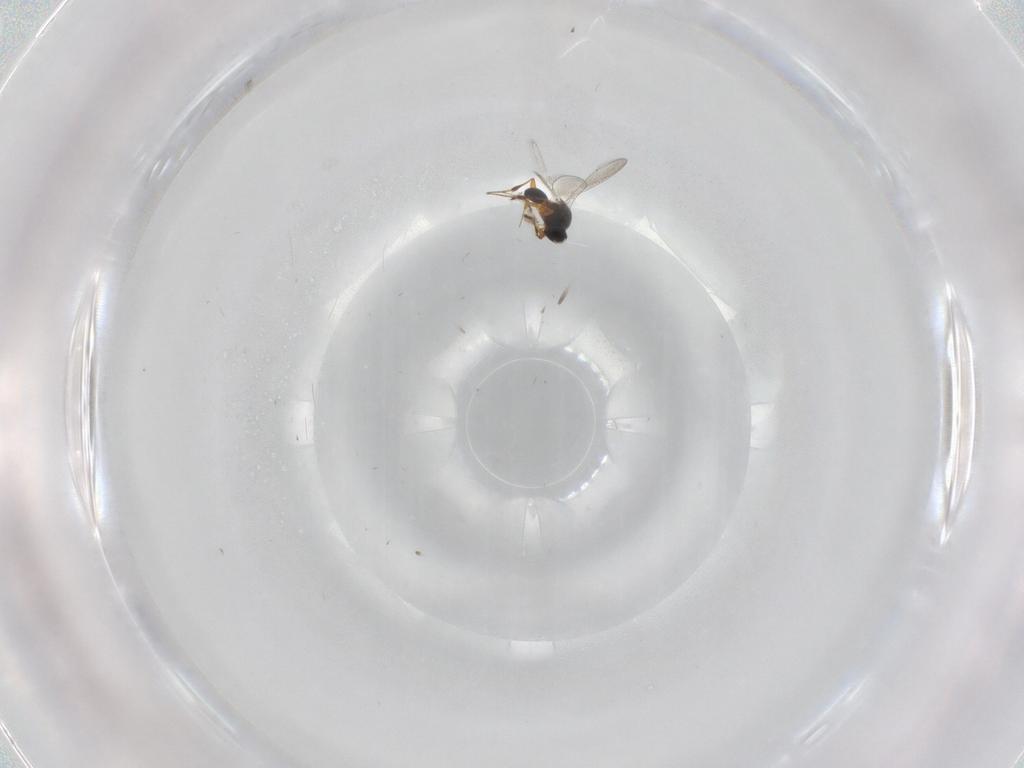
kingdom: Animalia
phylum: Arthropoda
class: Insecta
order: Hymenoptera
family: Platygastridae
